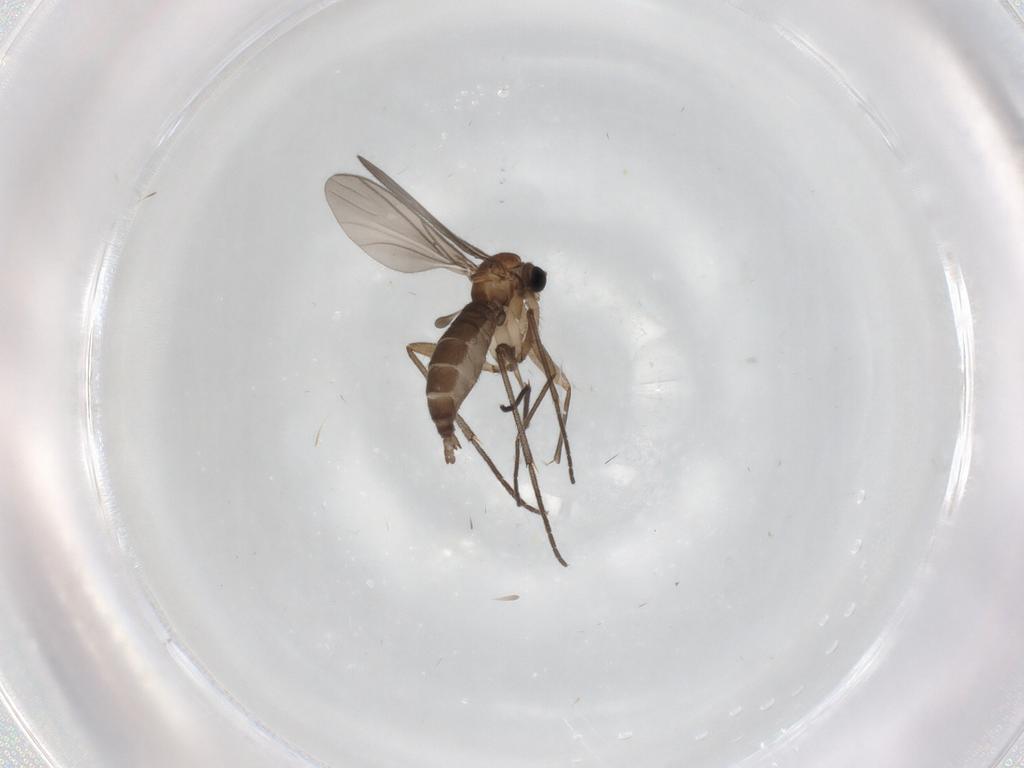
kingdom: Animalia
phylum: Arthropoda
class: Insecta
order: Diptera
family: Sciaridae
